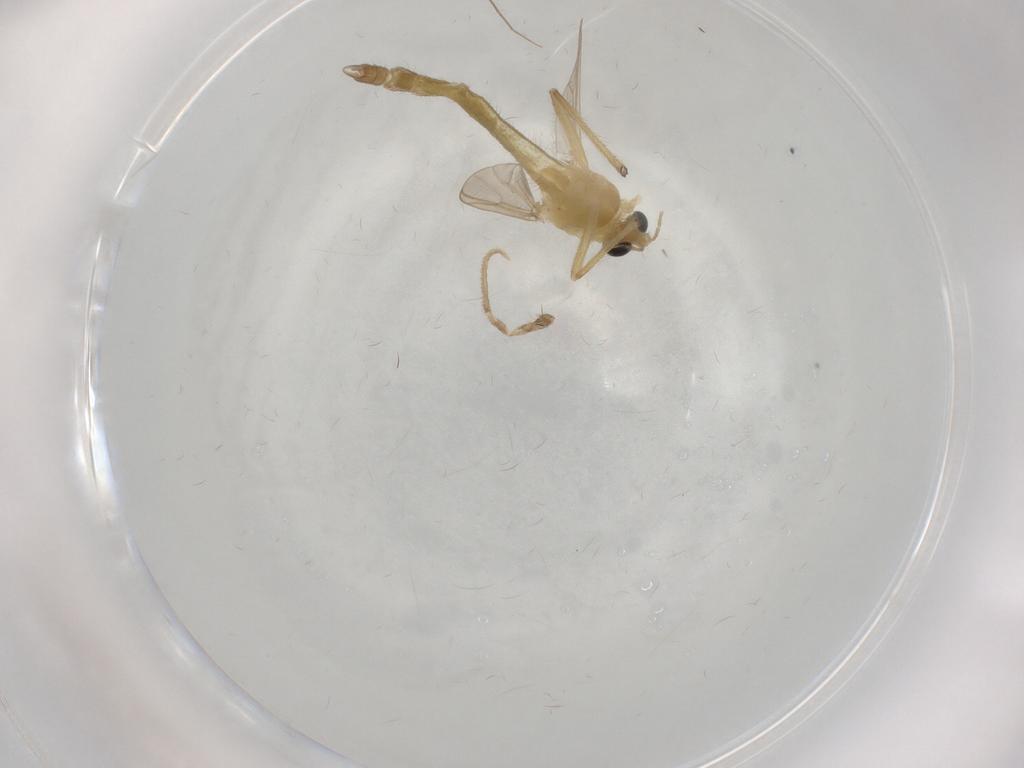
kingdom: Animalia
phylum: Arthropoda
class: Insecta
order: Diptera
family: Chironomidae
